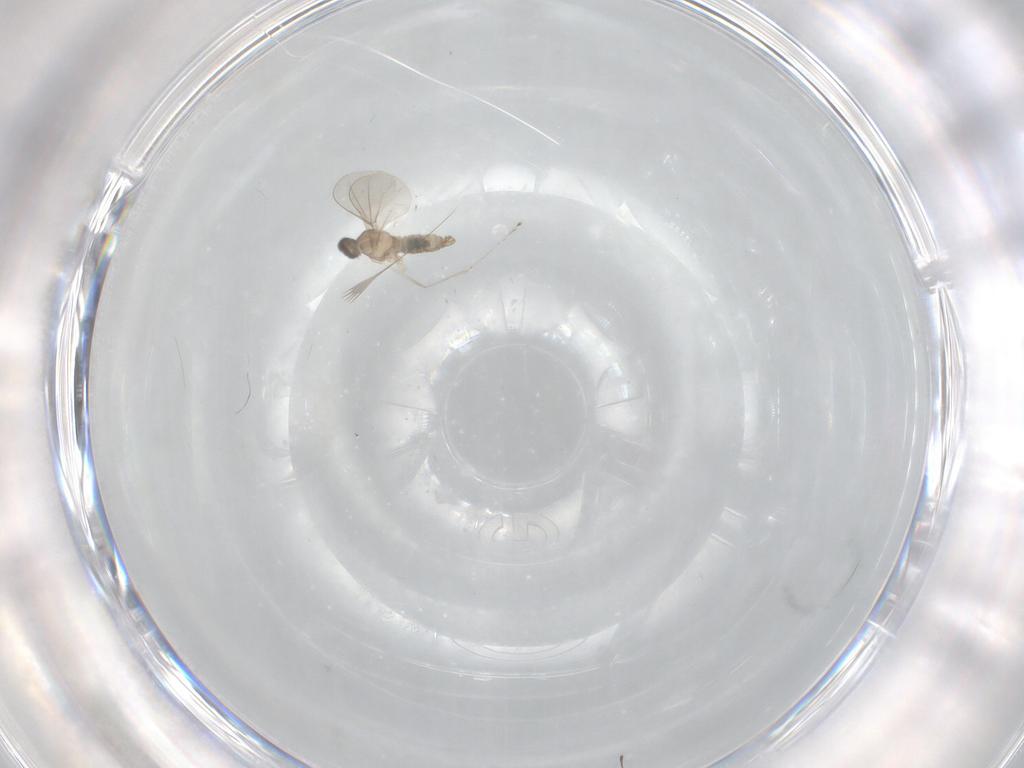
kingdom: Animalia
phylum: Arthropoda
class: Insecta
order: Diptera
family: Cecidomyiidae
